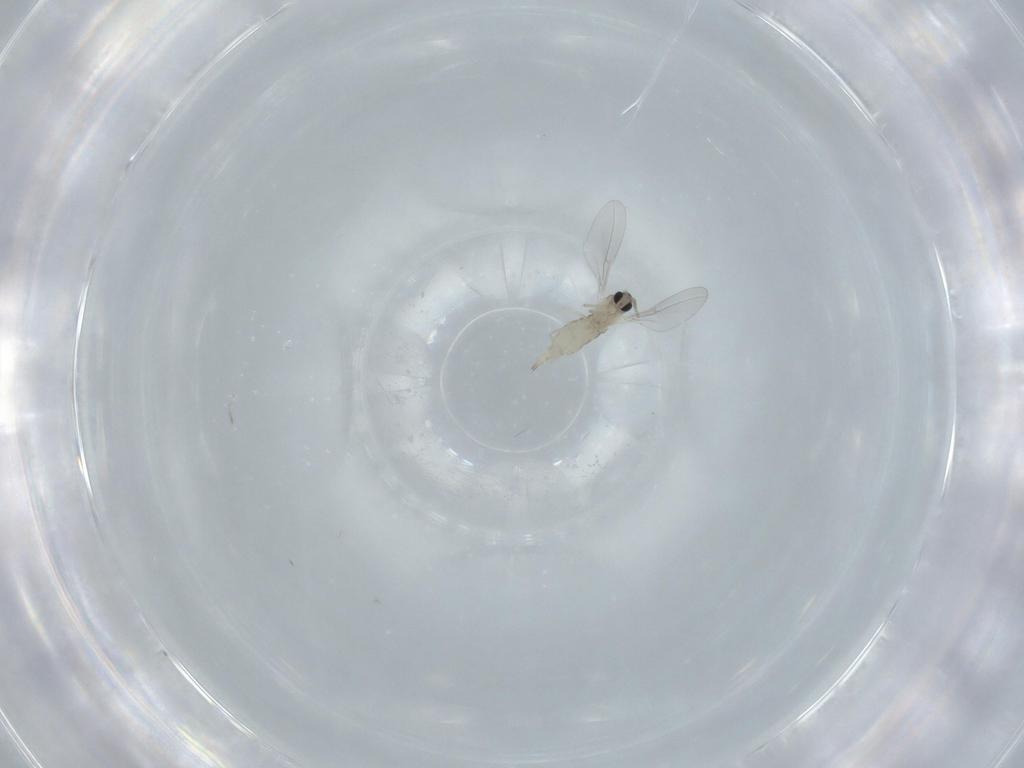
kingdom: Animalia
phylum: Arthropoda
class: Insecta
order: Diptera
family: Cecidomyiidae
